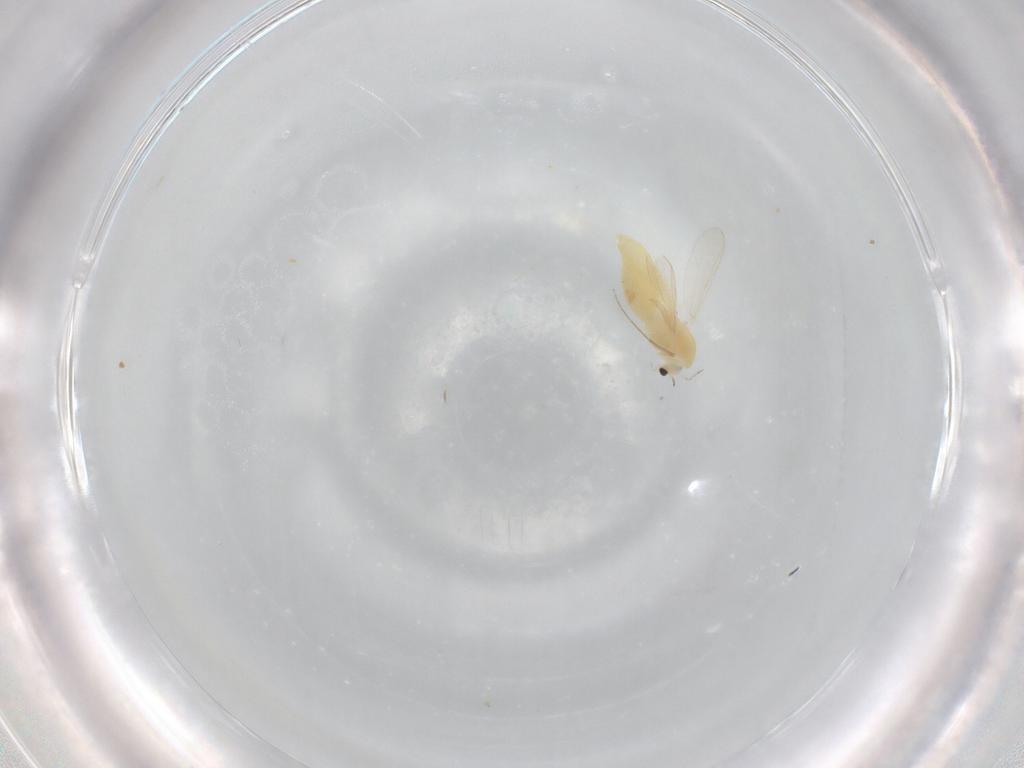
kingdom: Animalia
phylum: Arthropoda
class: Insecta
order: Diptera
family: Chironomidae
